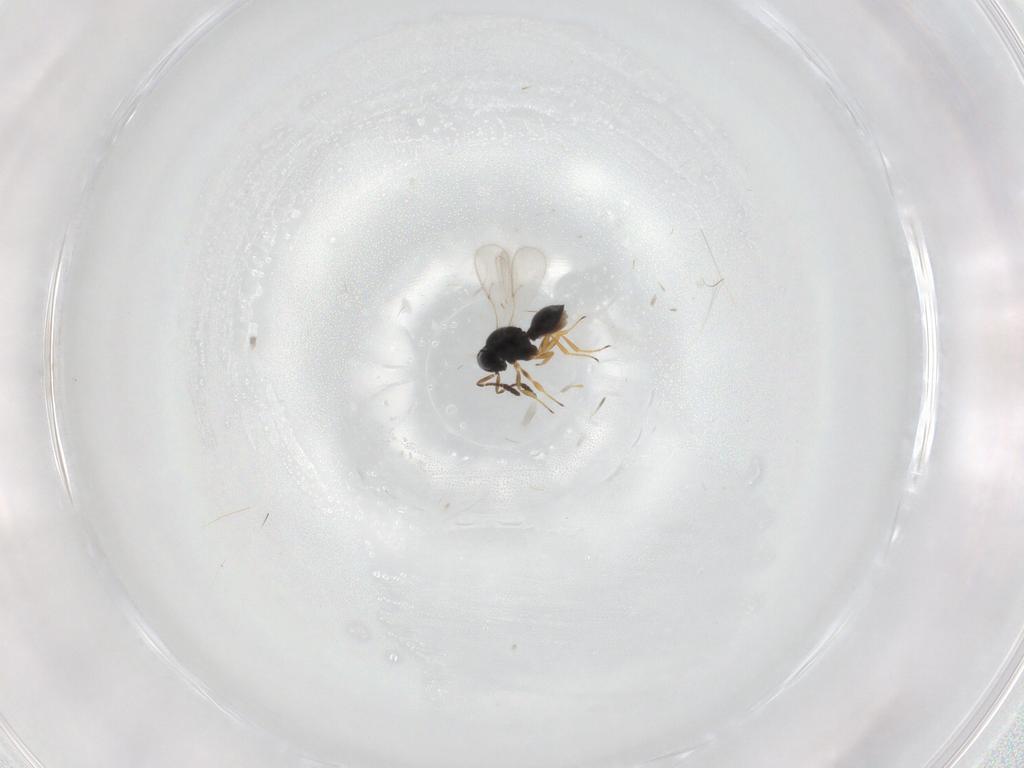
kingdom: Animalia
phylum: Arthropoda
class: Insecta
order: Hymenoptera
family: Scelionidae
